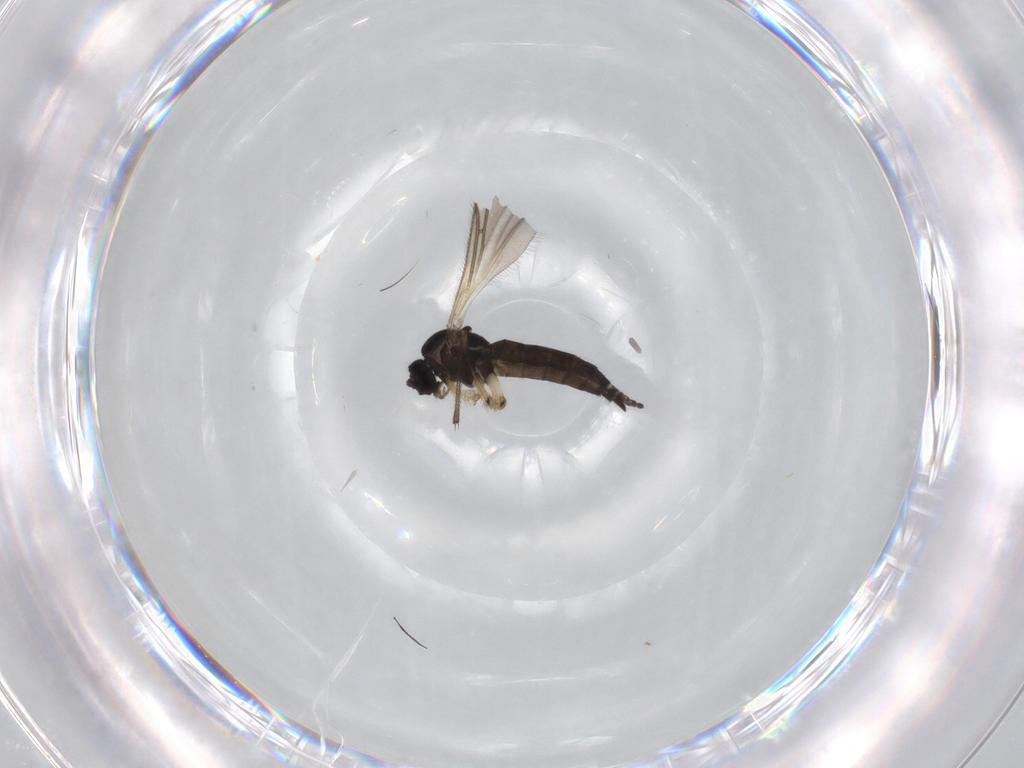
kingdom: Animalia
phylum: Arthropoda
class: Insecta
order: Diptera
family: Sciaridae
